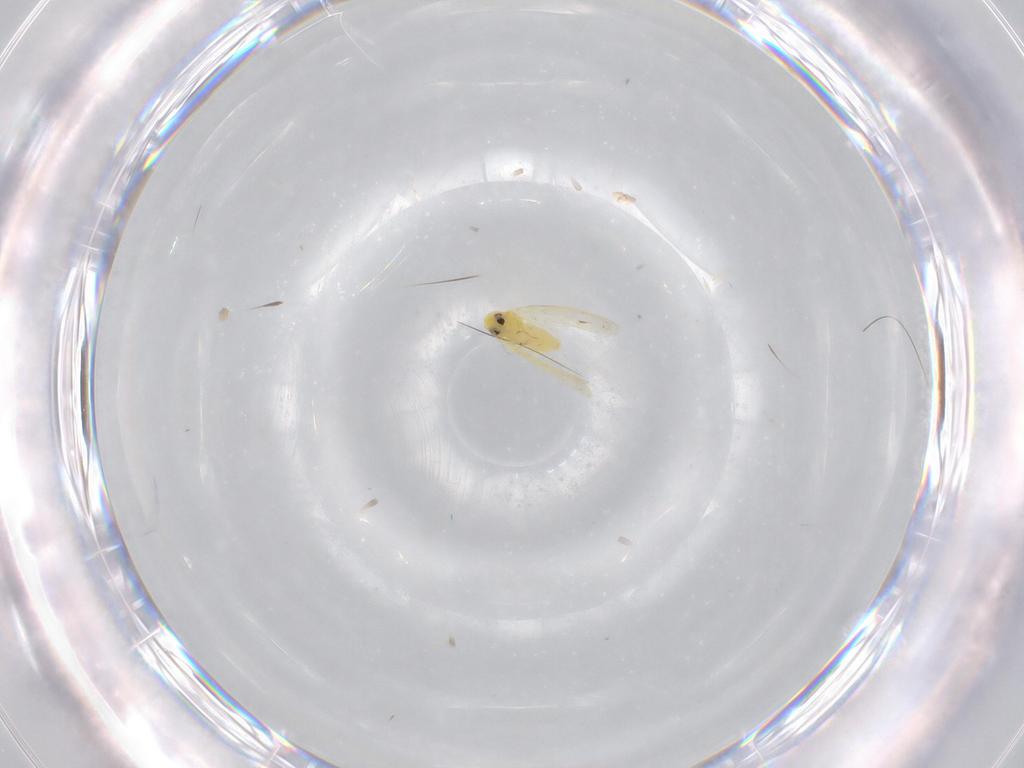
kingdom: Animalia
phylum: Arthropoda
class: Insecta
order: Hemiptera
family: Aleyrodidae
